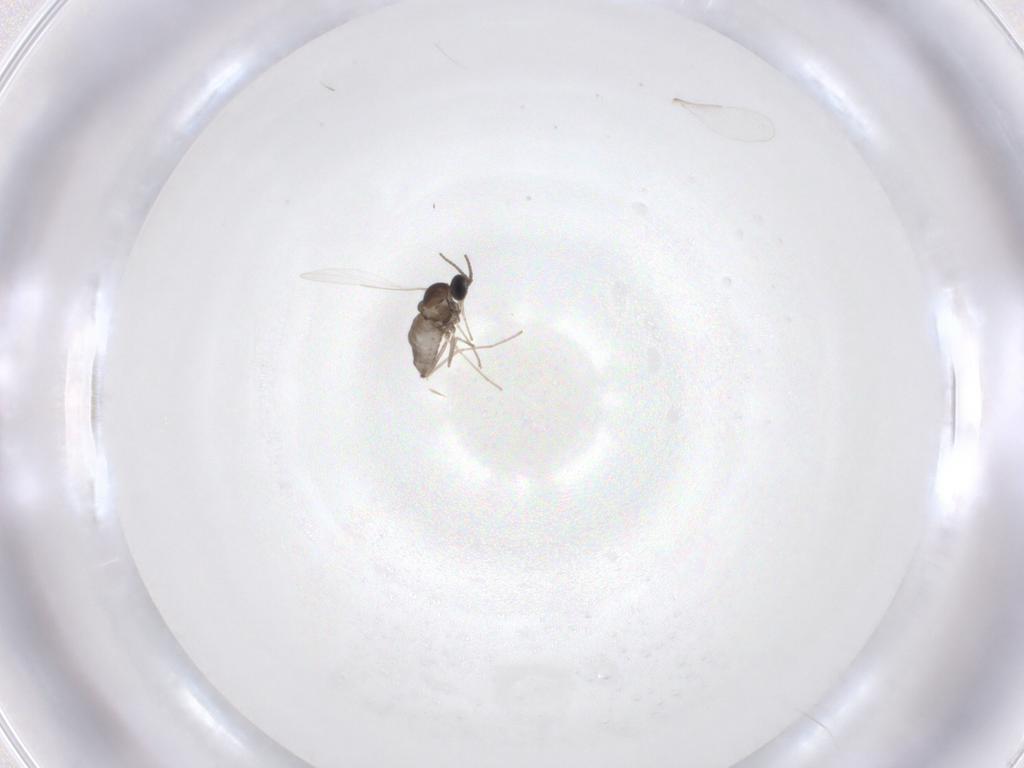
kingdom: Animalia
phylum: Arthropoda
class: Insecta
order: Diptera
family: Cecidomyiidae
